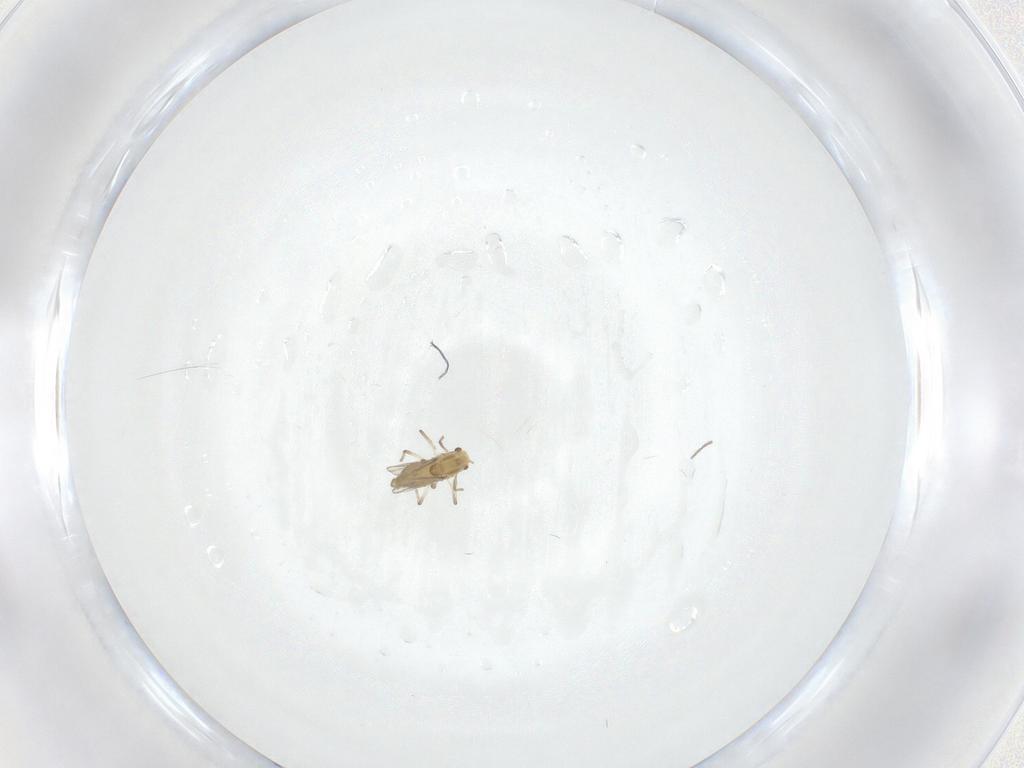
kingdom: Animalia
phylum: Arthropoda
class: Insecta
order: Diptera
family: Chironomidae
